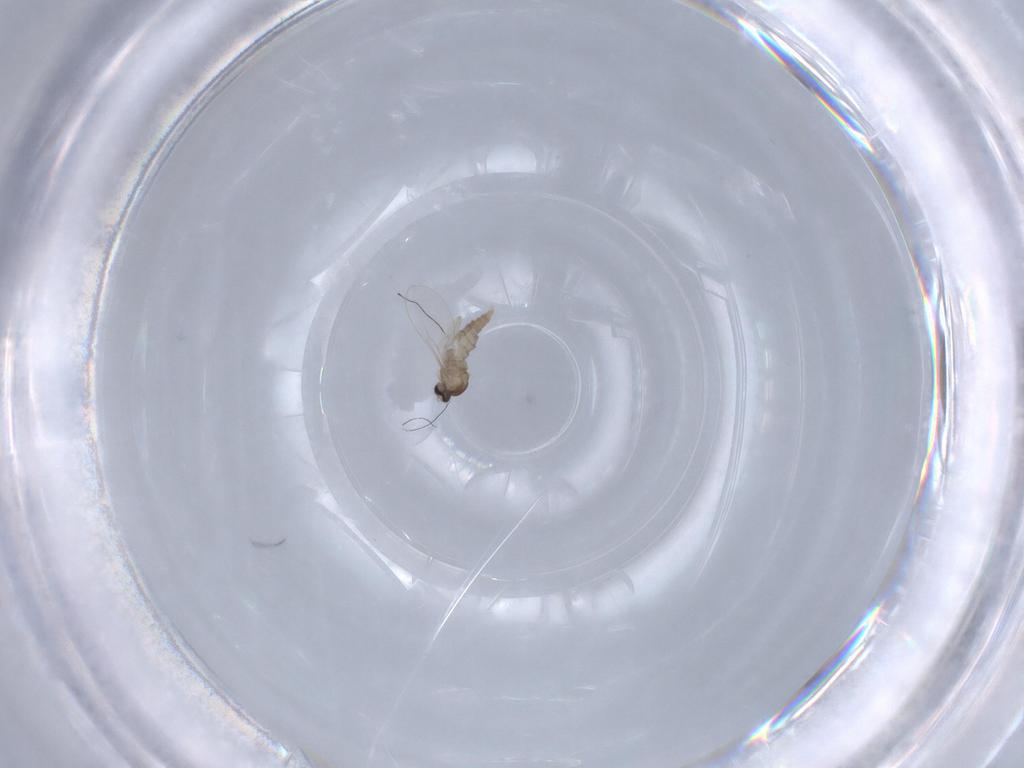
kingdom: Animalia
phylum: Arthropoda
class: Insecta
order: Diptera
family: Cecidomyiidae
